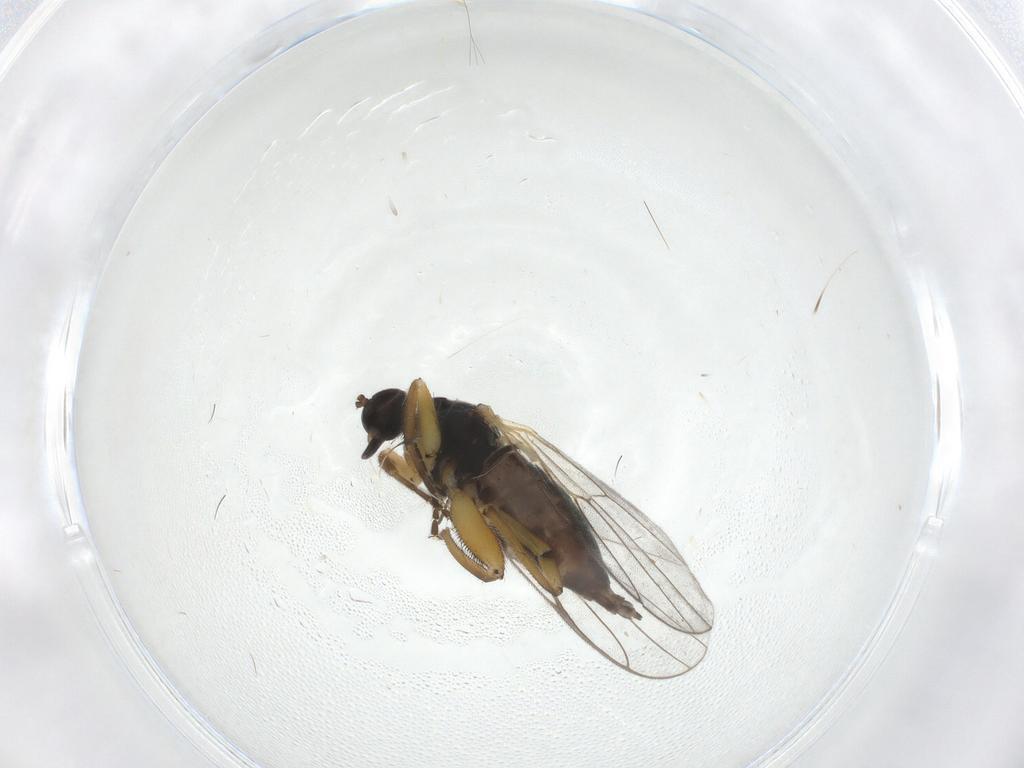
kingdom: Animalia
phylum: Arthropoda
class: Insecta
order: Diptera
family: Hybotidae
